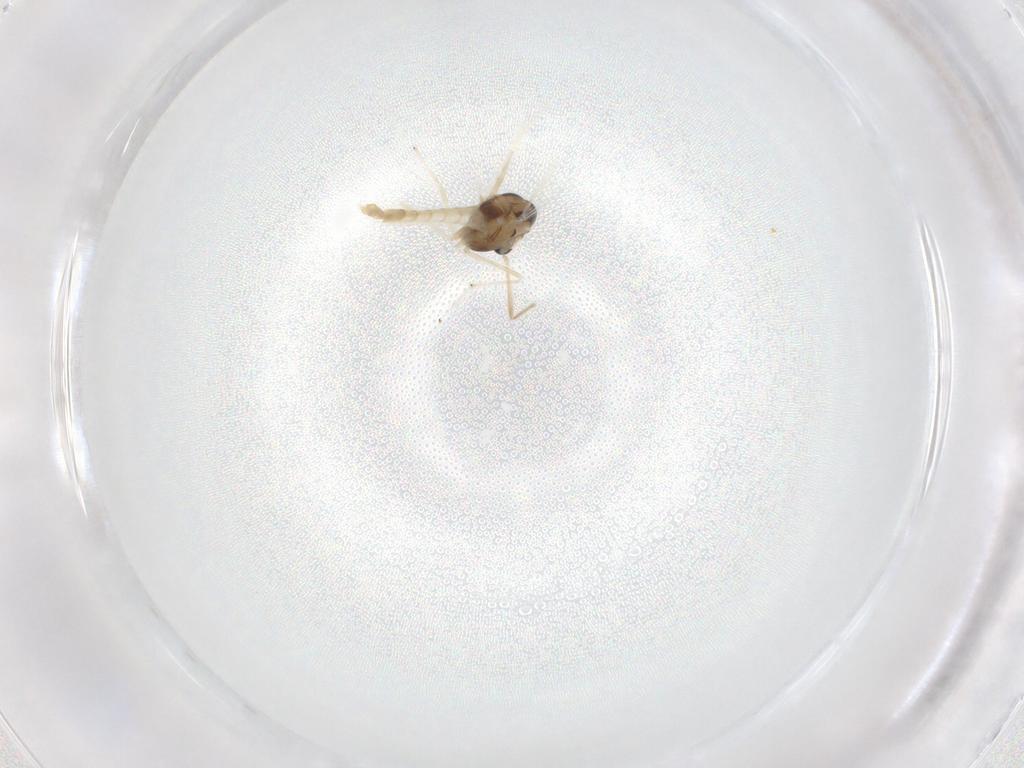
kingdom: Animalia
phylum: Arthropoda
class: Insecta
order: Diptera
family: Chironomidae
